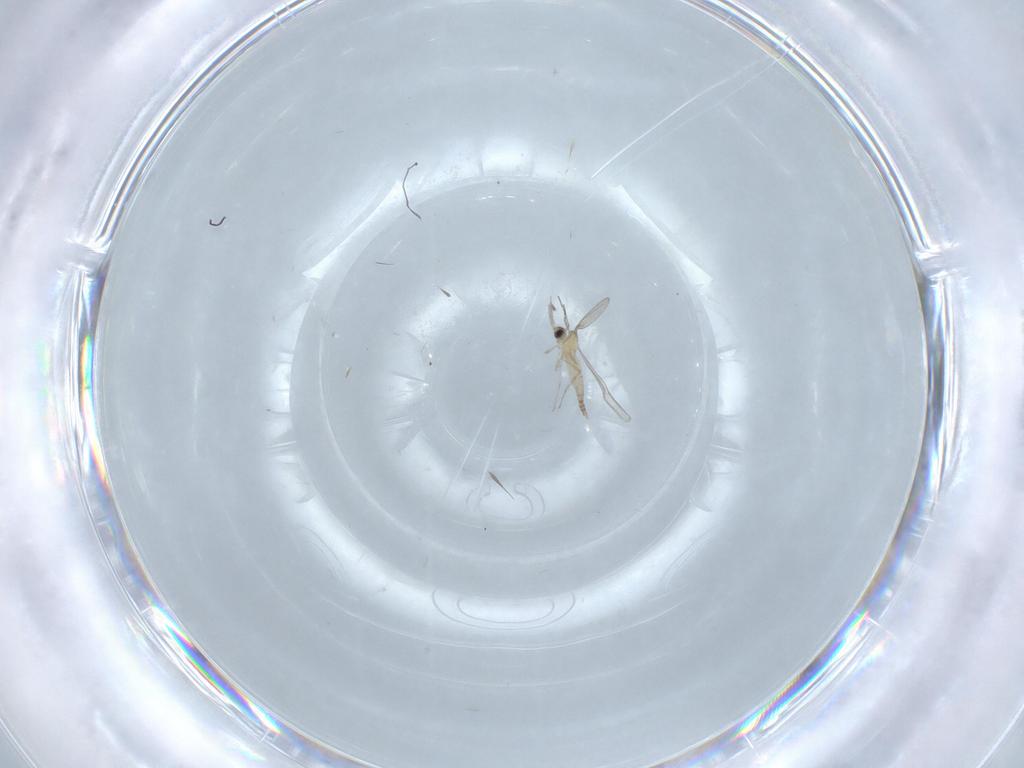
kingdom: Animalia
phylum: Arthropoda
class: Insecta
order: Diptera
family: Cecidomyiidae
